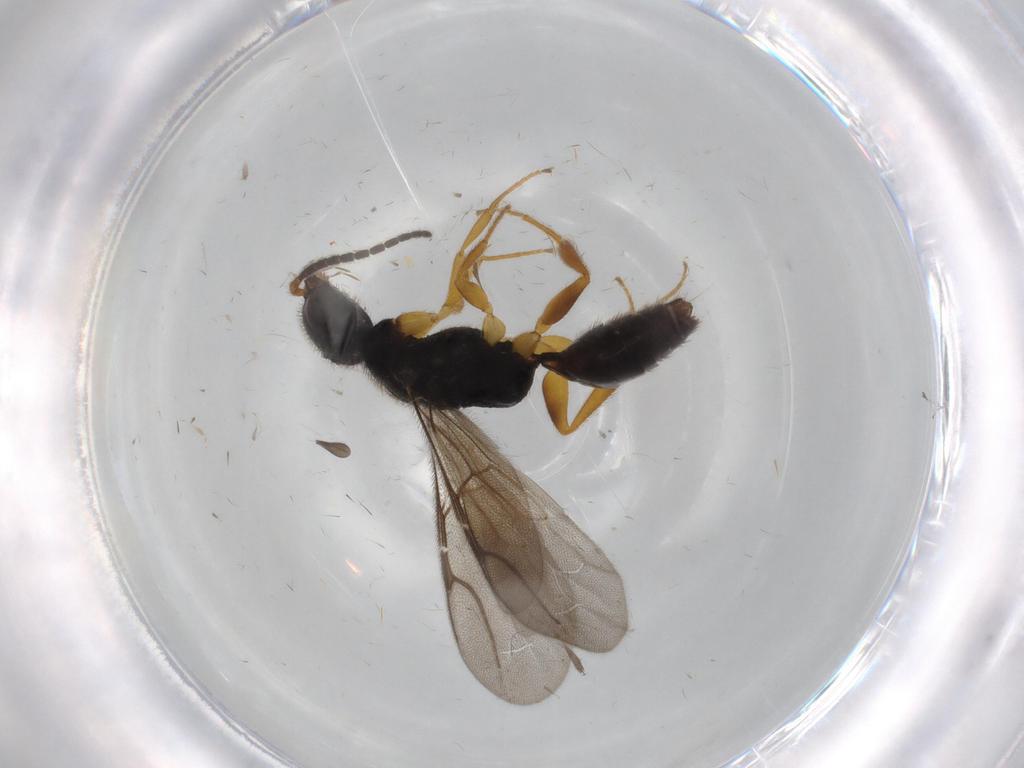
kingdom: Animalia
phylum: Arthropoda
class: Insecta
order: Hymenoptera
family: Bethylidae
